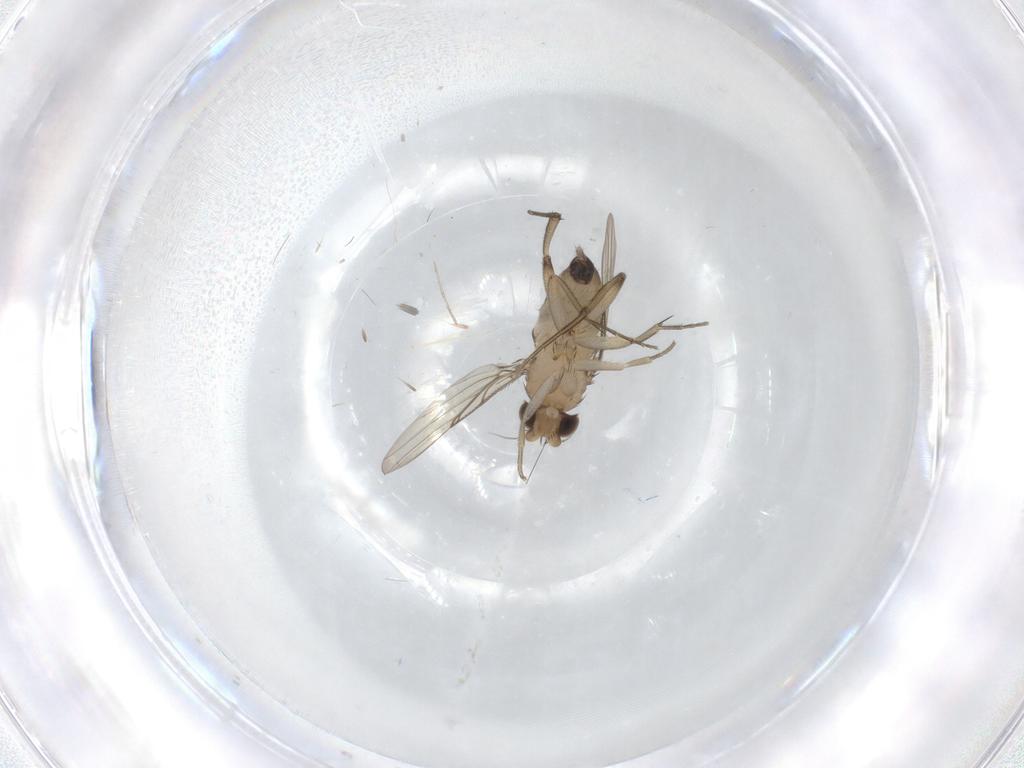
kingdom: Animalia
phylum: Arthropoda
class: Insecta
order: Diptera
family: Phoridae
